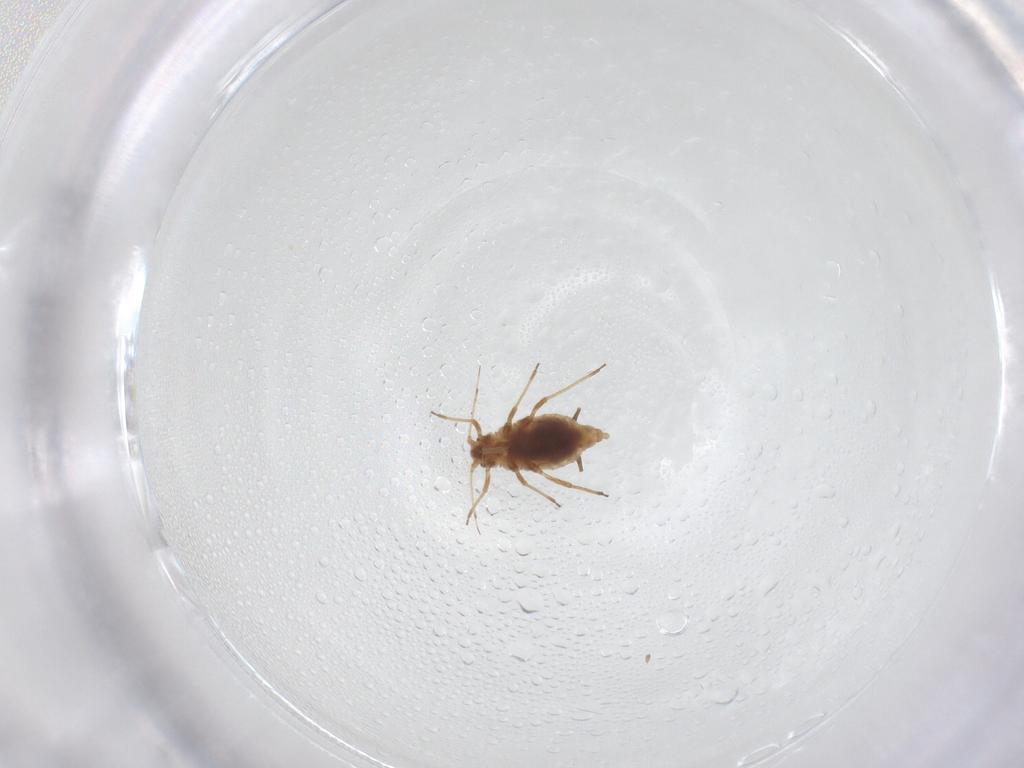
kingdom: Animalia
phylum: Arthropoda
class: Insecta
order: Hemiptera
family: Aphididae
